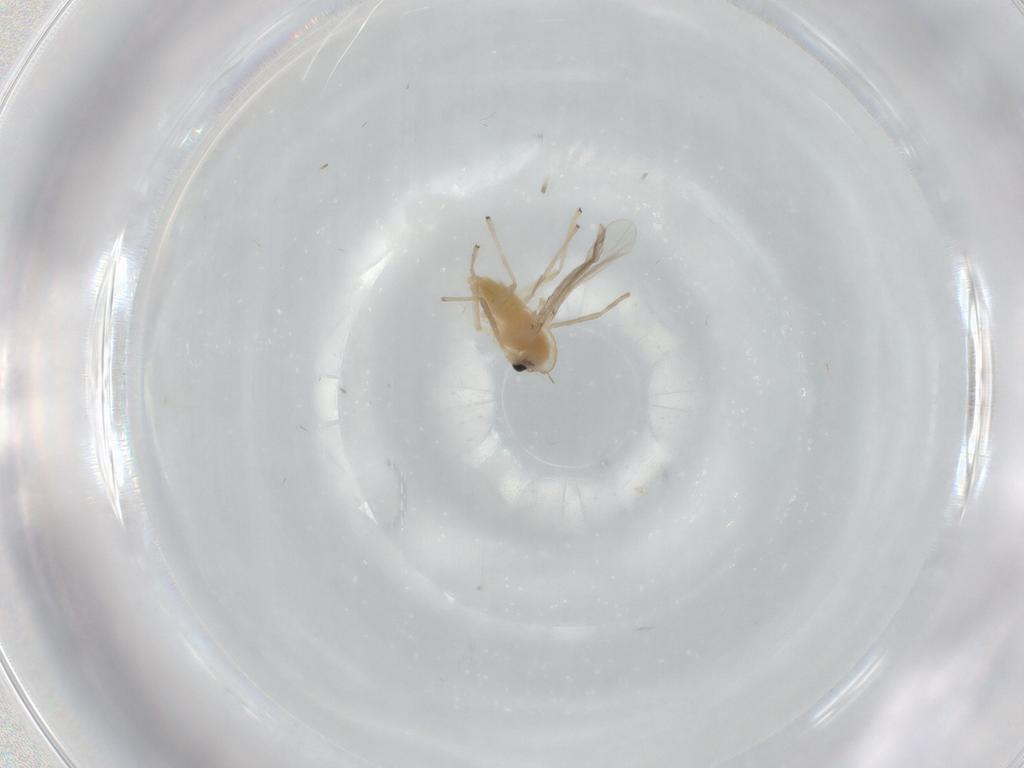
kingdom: Animalia
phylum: Arthropoda
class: Insecta
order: Diptera
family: Chironomidae
